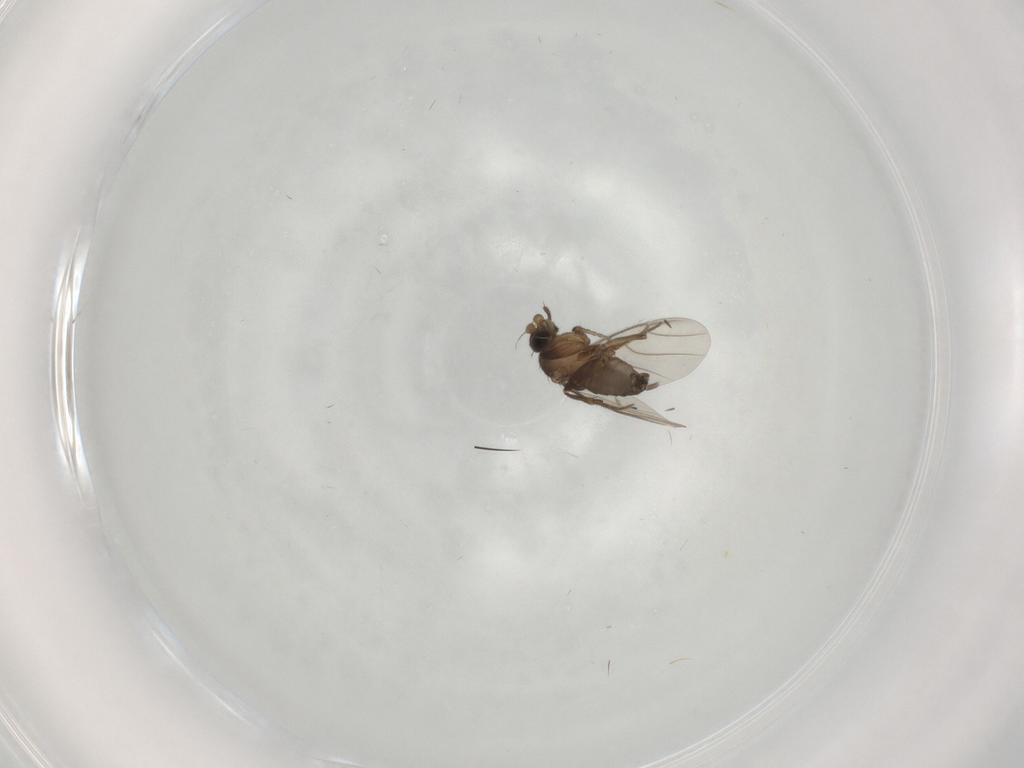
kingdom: Animalia
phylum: Arthropoda
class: Insecta
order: Diptera
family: Phoridae
